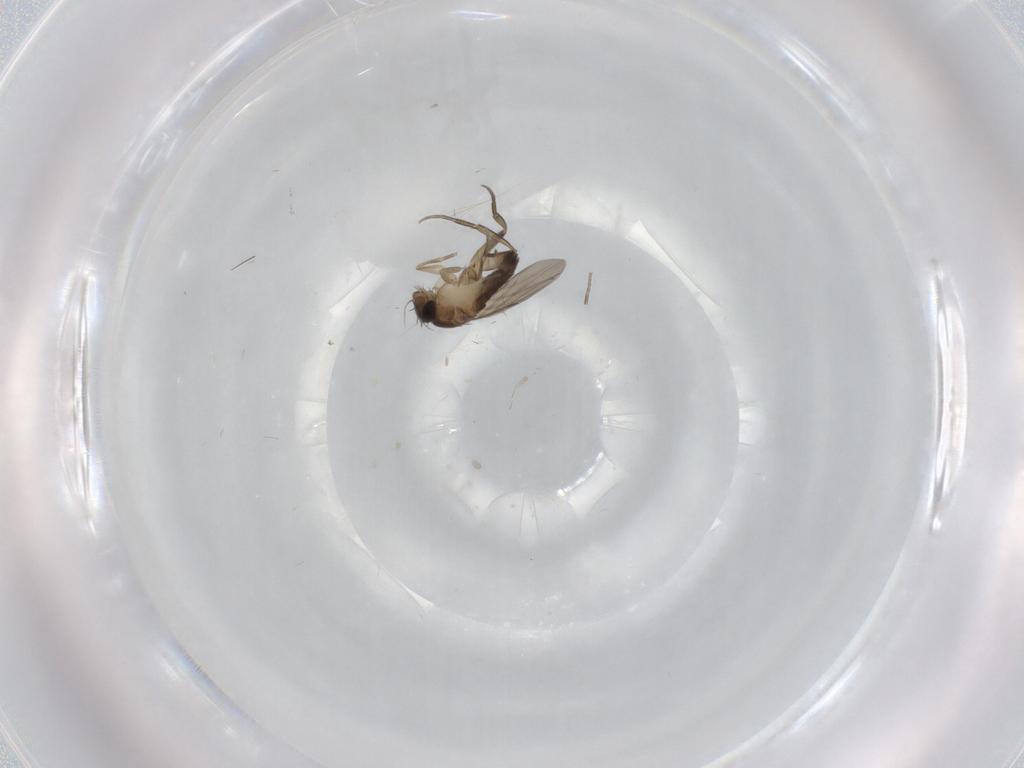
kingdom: Animalia
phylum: Arthropoda
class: Insecta
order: Diptera
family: Phoridae
